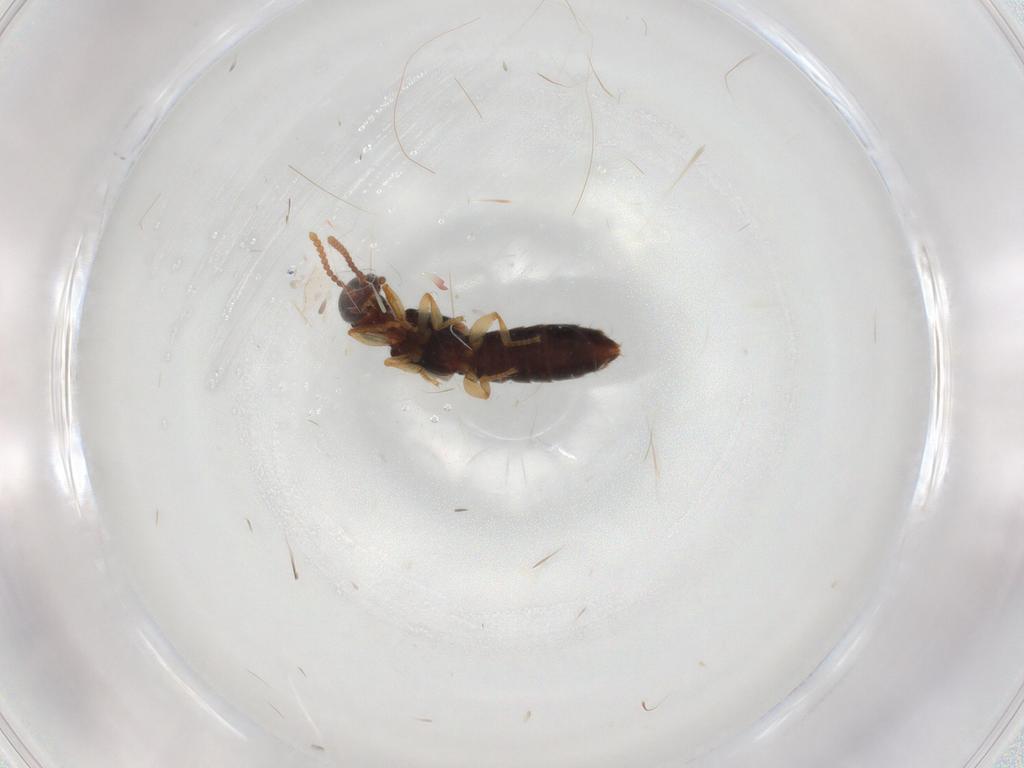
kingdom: Animalia
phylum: Arthropoda
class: Insecta
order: Coleoptera
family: Staphylinidae
